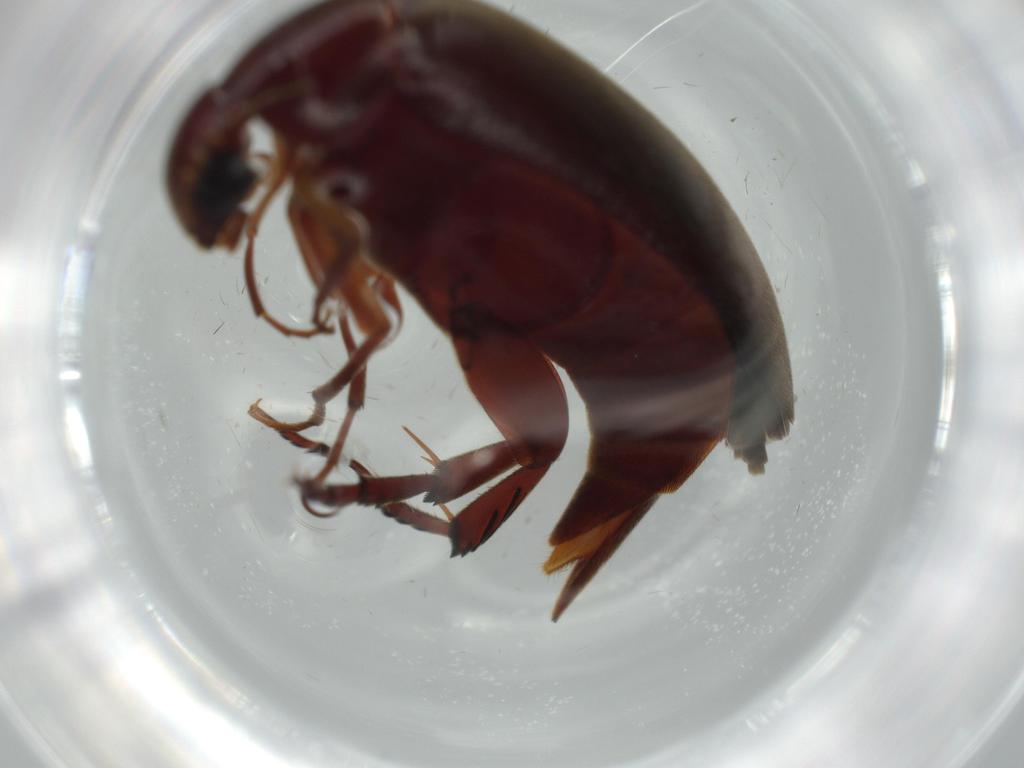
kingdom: Animalia
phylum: Arthropoda
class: Insecta
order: Coleoptera
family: Mordellidae
